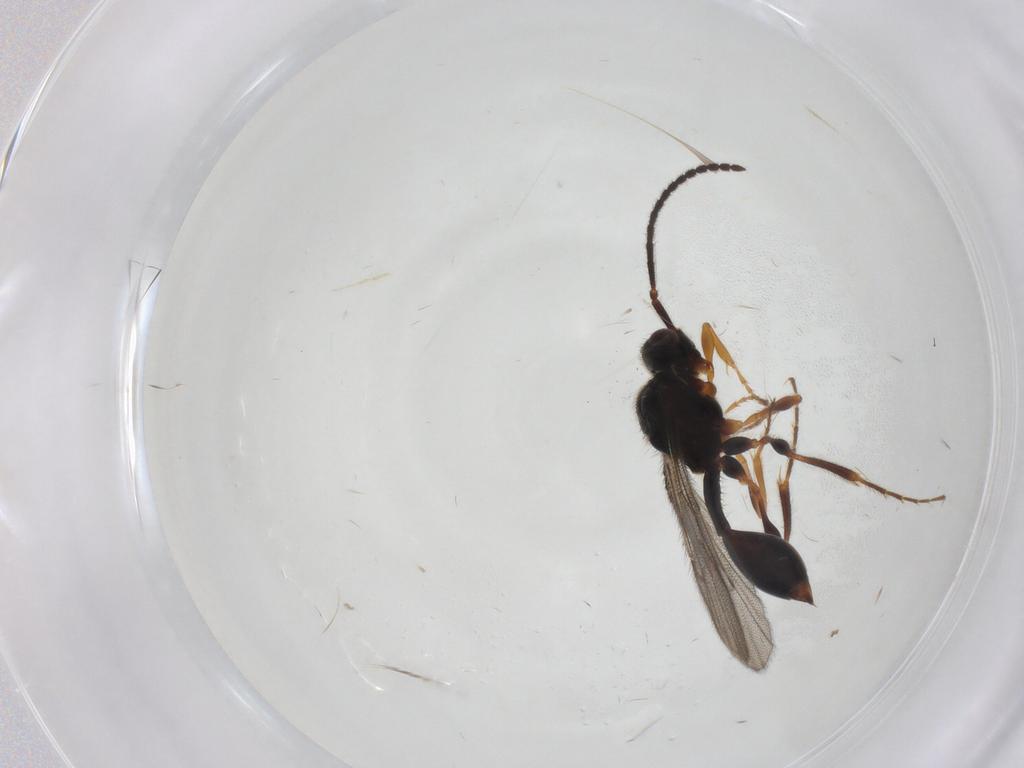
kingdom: Animalia
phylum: Arthropoda
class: Insecta
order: Hymenoptera
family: Diapriidae
